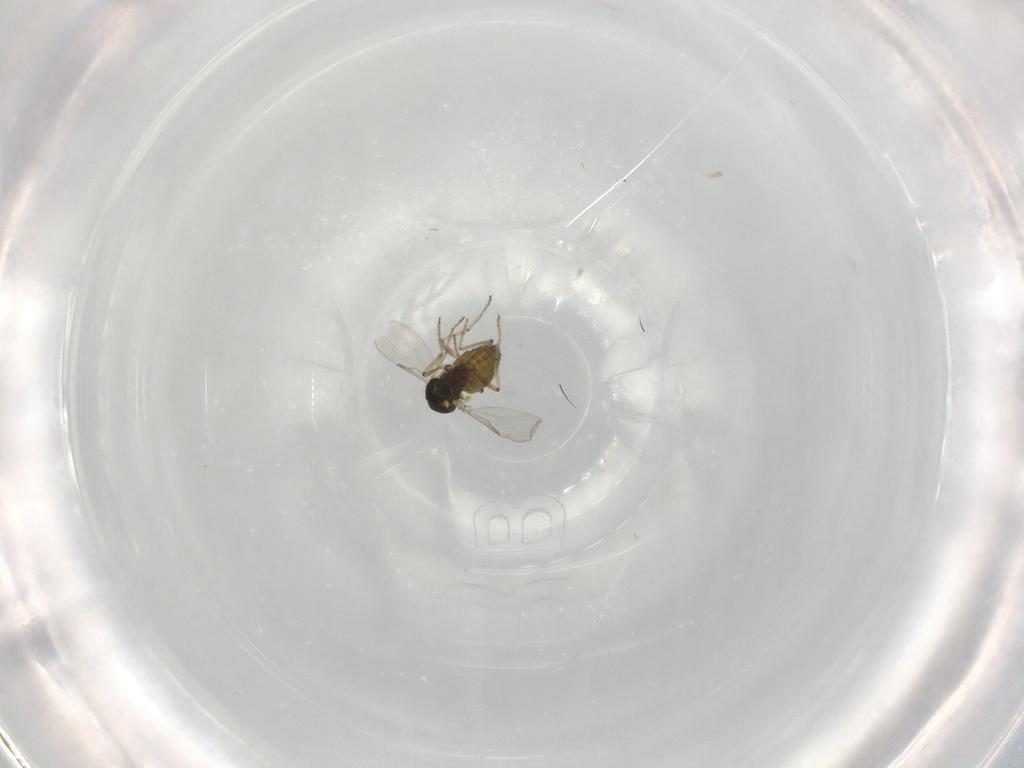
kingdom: Animalia
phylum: Arthropoda
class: Insecta
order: Diptera
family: Ceratopogonidae
